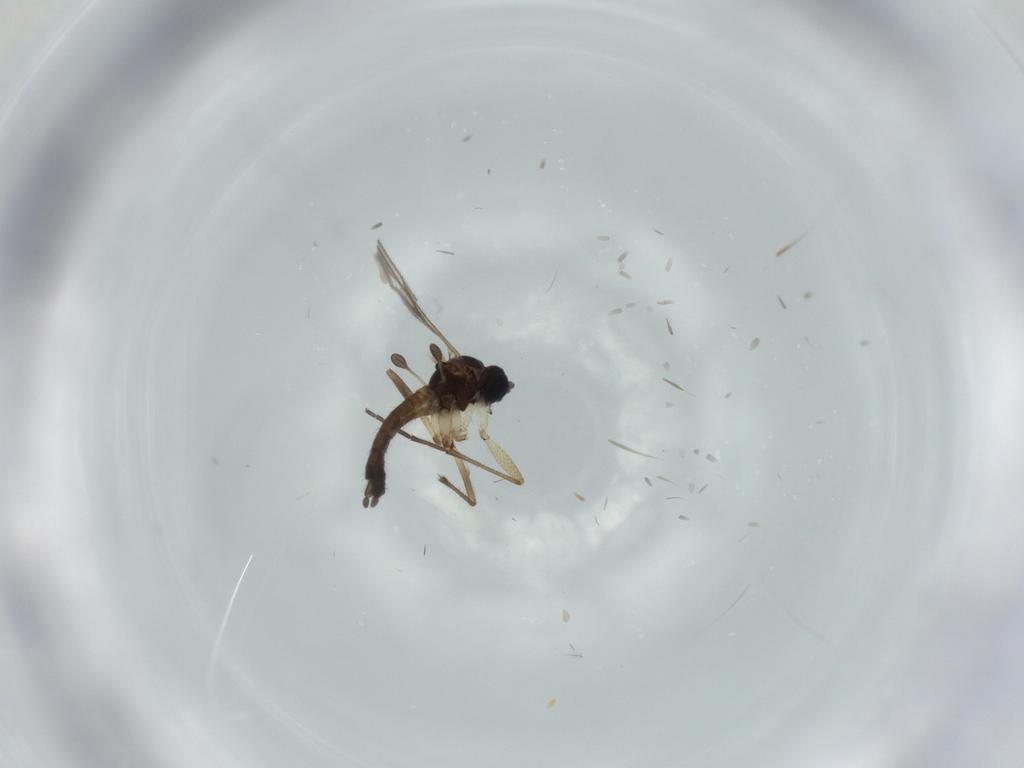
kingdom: Animalia
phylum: Arthropoda
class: Insecta
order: Diptera
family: Sciaridae
